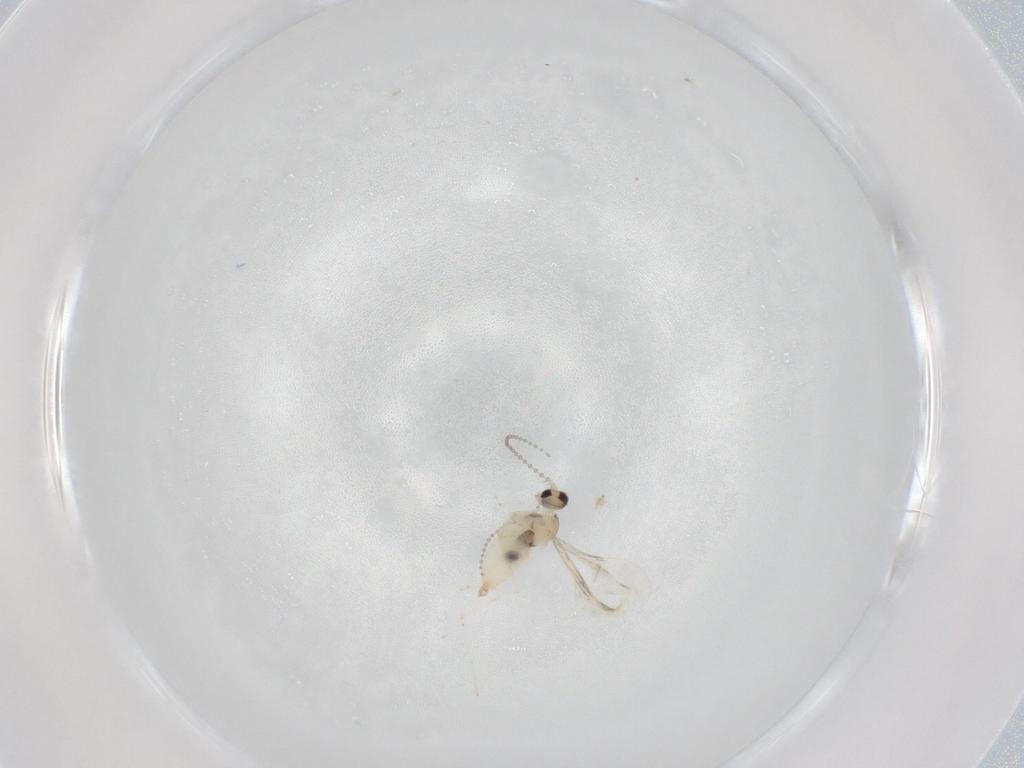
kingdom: Animalia
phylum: Arthropoda
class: Insecta
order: Diptera
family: Cecidomyiidae
